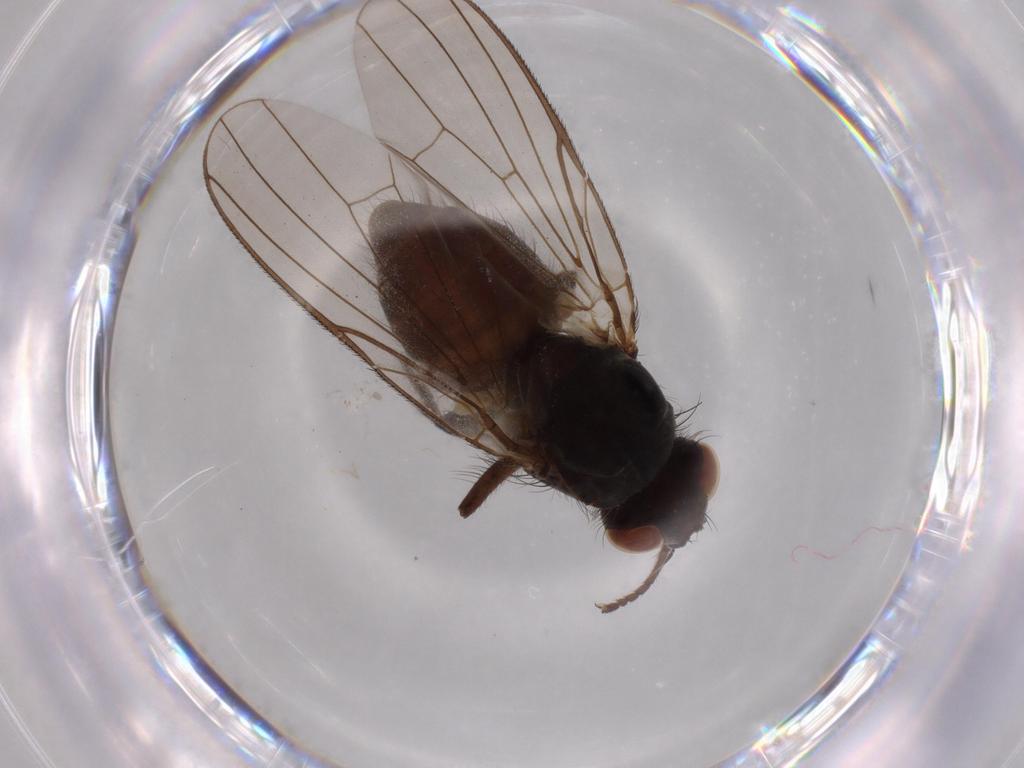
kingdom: Animalia
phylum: Arthropoda
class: Insecta
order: Diptera
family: Anthomyiidae
